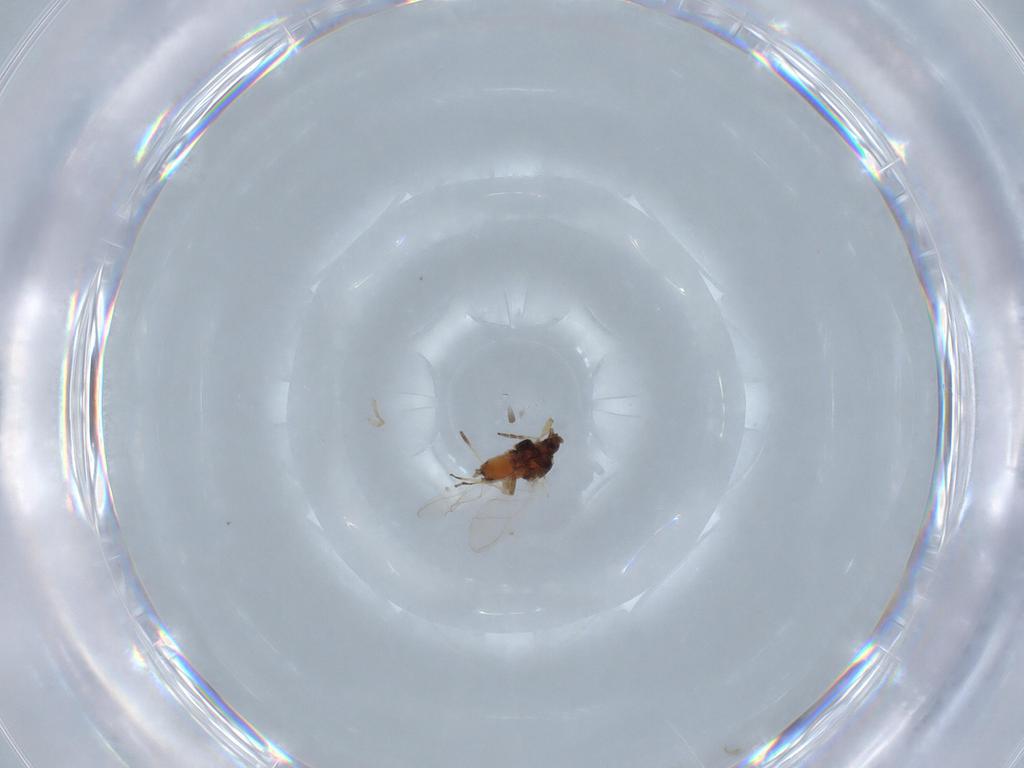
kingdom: Animalia
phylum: Arthropoda
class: Insecta
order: Hemiptera
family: Aphididae
